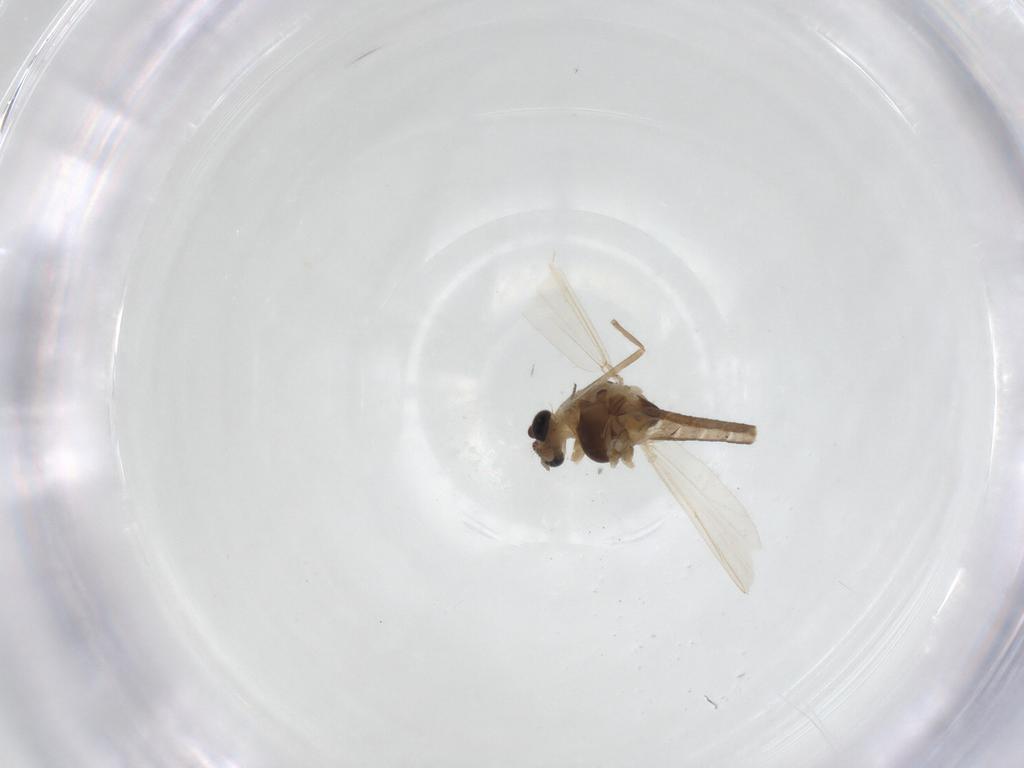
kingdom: Animalia
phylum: Arthropoda
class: Insecta
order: Diptera
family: Chironomidae
